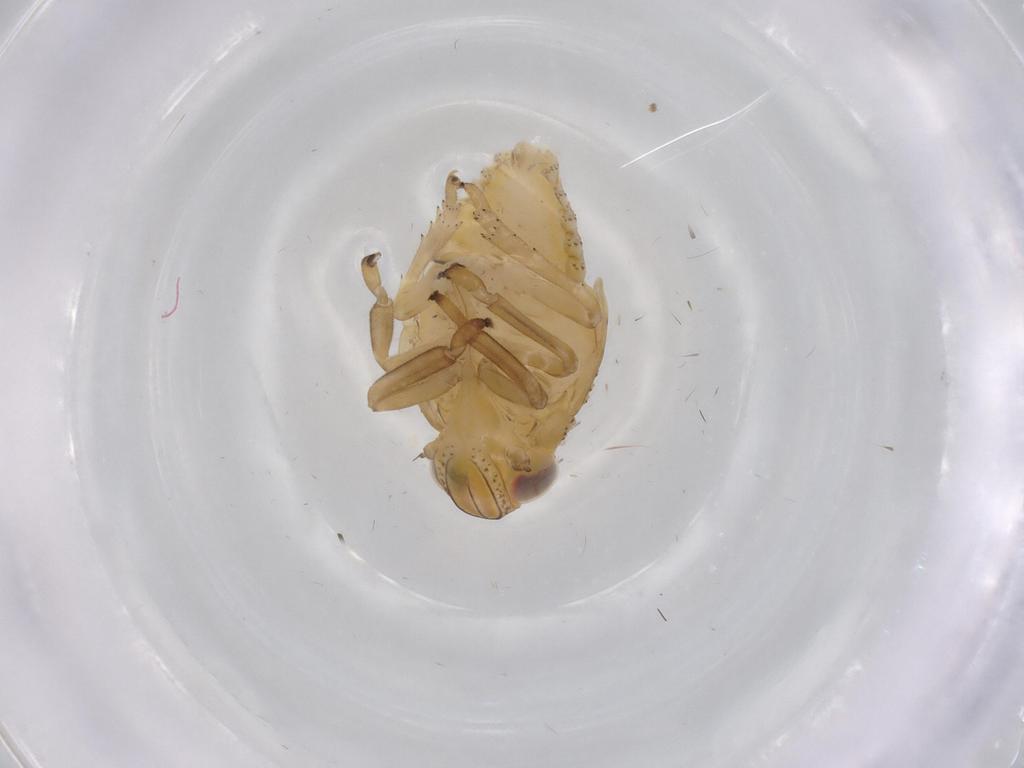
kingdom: Animalia
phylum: Arthropoda
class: Insecta
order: Hemiptera
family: Issidae
